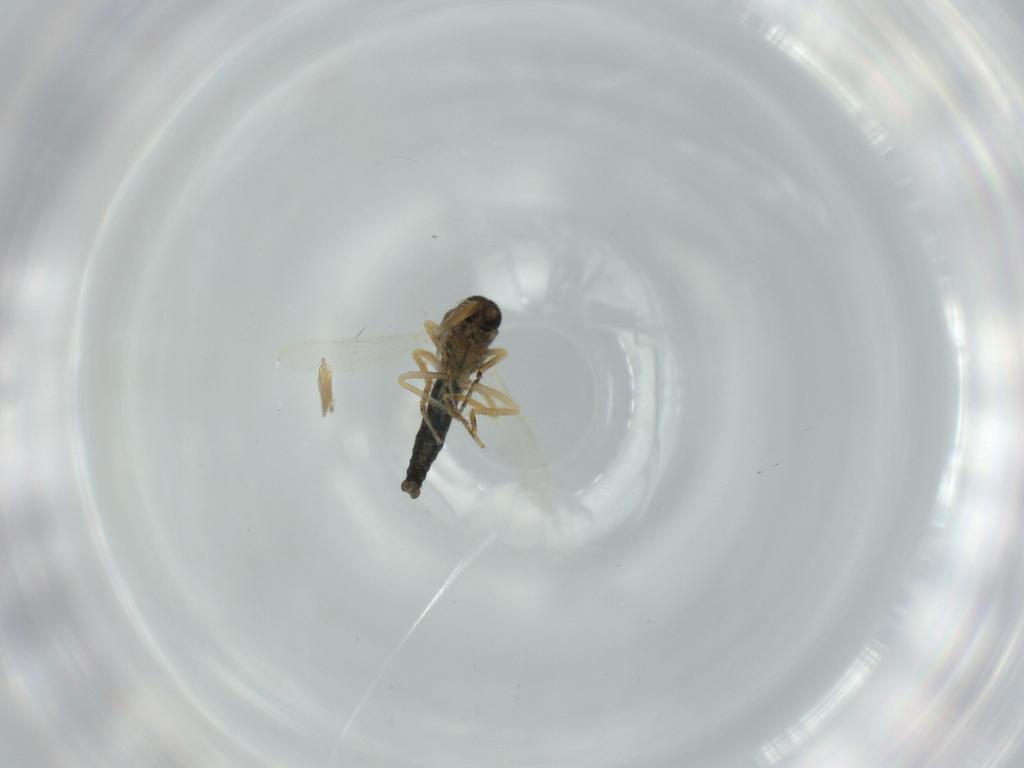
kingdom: Animalia
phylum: Arthropoda
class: Insecta
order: Diptera
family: Ceratopogonidae
